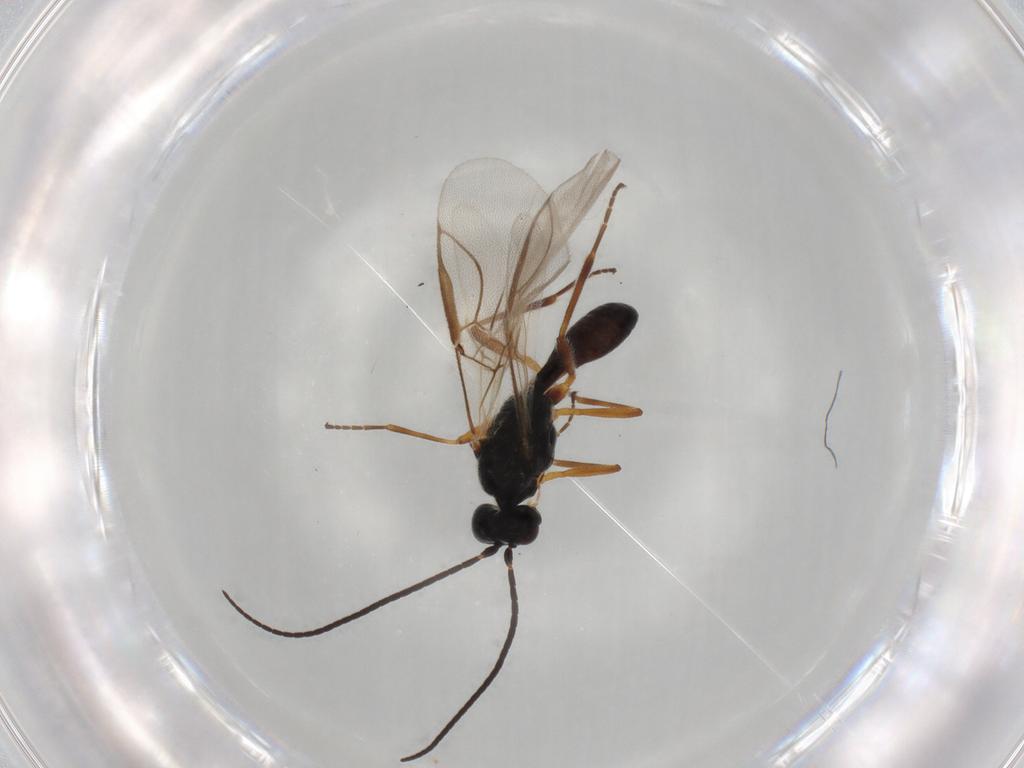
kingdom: Animalia
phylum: Arthropoda
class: Insecta
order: Hymenoptera
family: Braconidae
